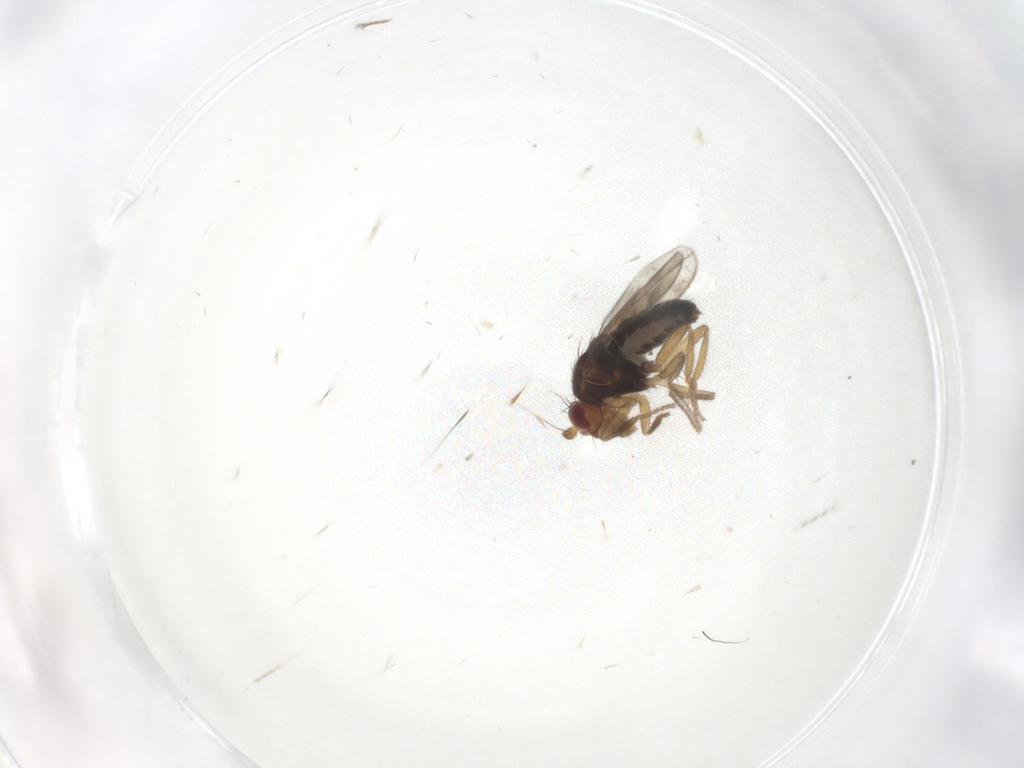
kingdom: Animalia
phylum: Arthropoda
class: Insecta
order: Diptera
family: Sphaeroceridae
